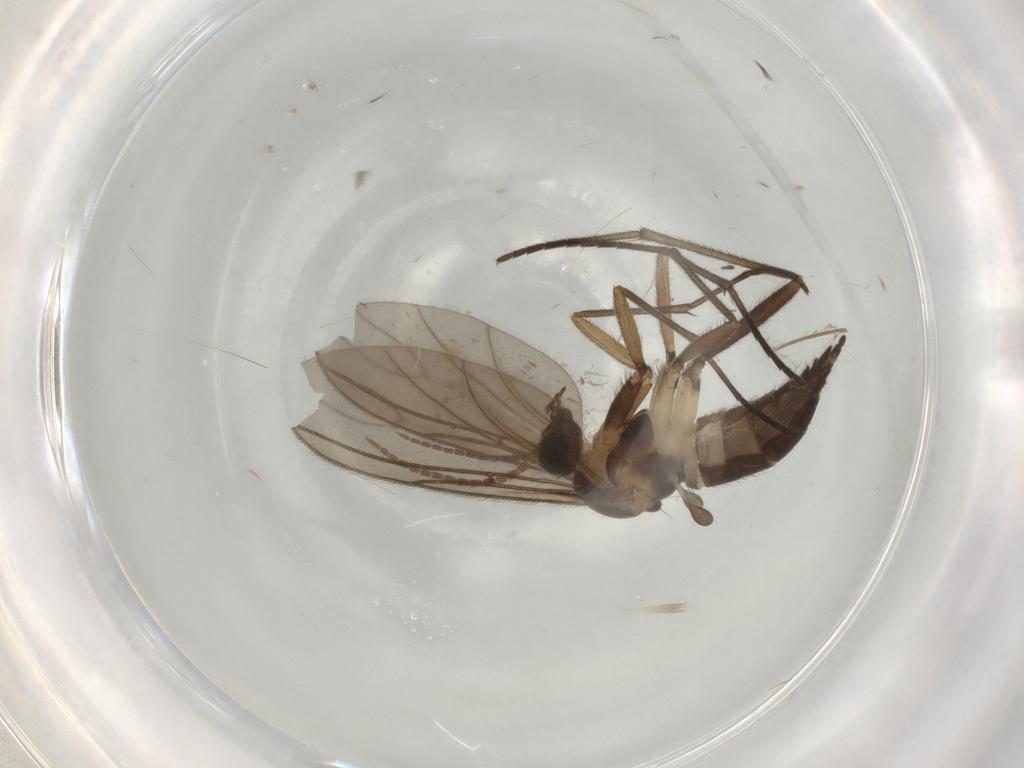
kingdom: Animalia
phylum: Arthropoda
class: Insecta
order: Diptera
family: Sciaridae
